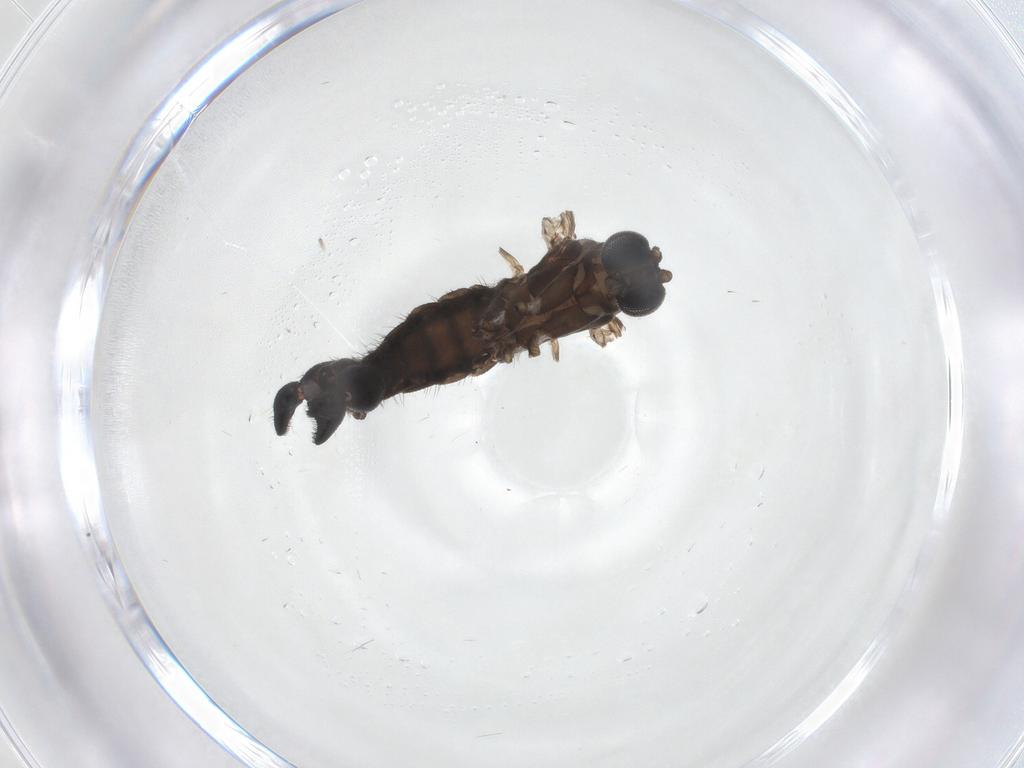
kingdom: Animalia
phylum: Arthropoda
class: Insecta
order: Diptera
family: Sciaridae
